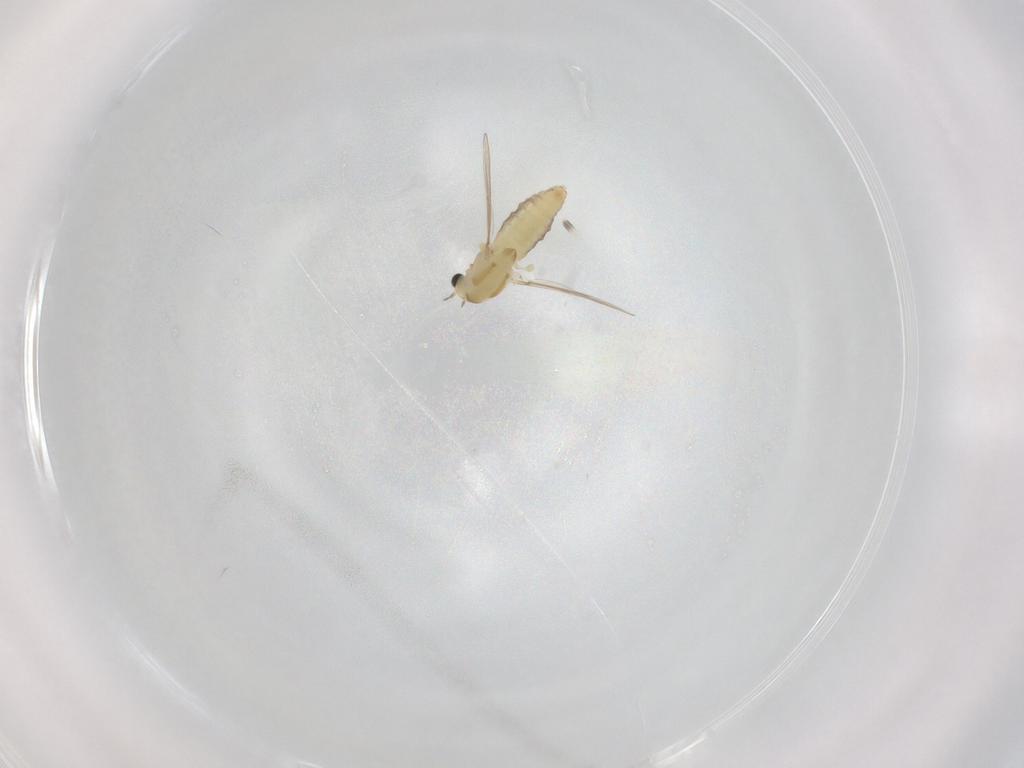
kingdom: Animalia
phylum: Arthropoda
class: Insecta
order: Diptera
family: Chironomidae
